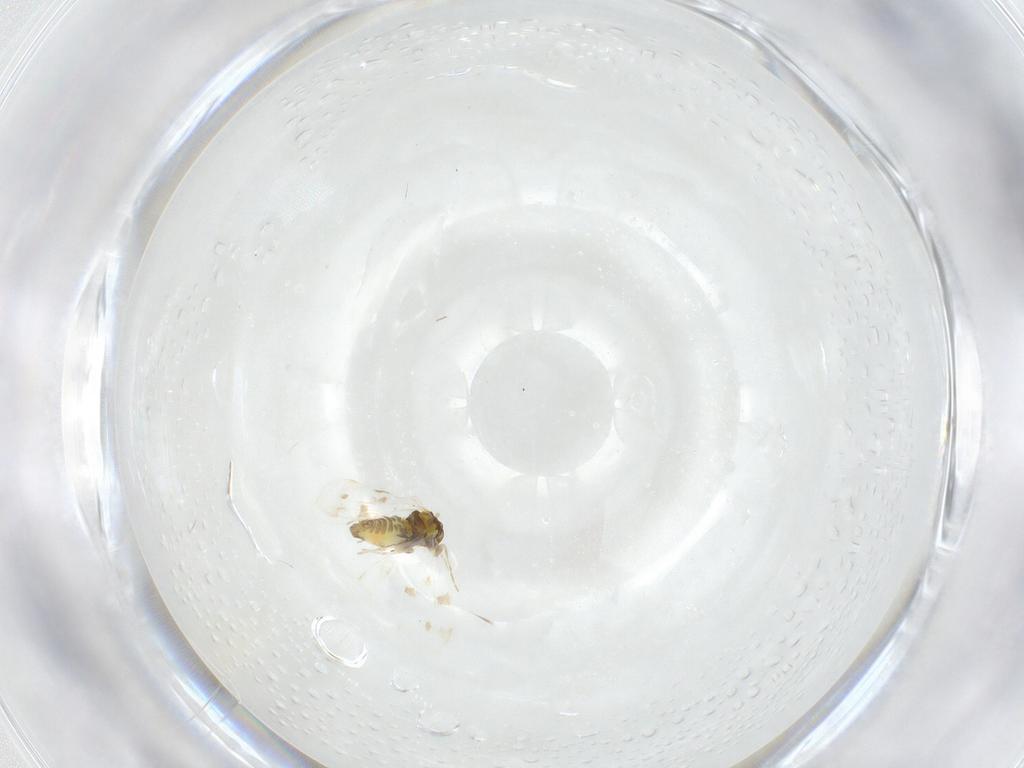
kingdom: Animalia
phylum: Arthropoda
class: Insecta
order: Hemiptera
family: Aleyrodidae
